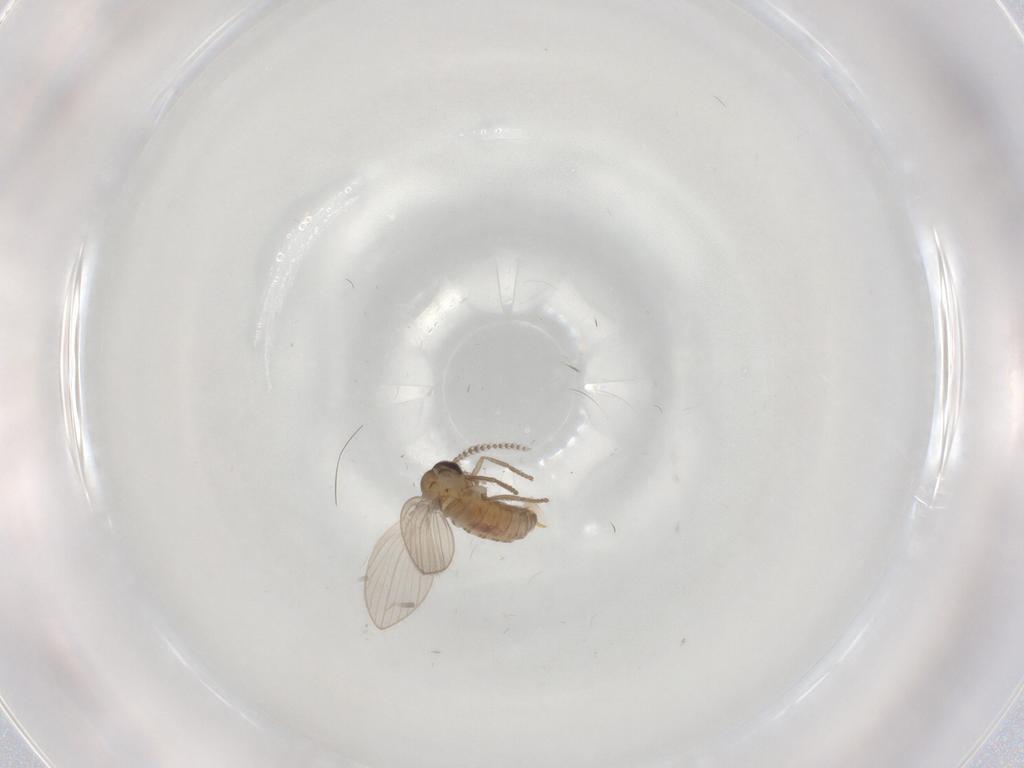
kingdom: Animalia
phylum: Arthropoda
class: Insecta
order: Diptera
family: Psychodidae
